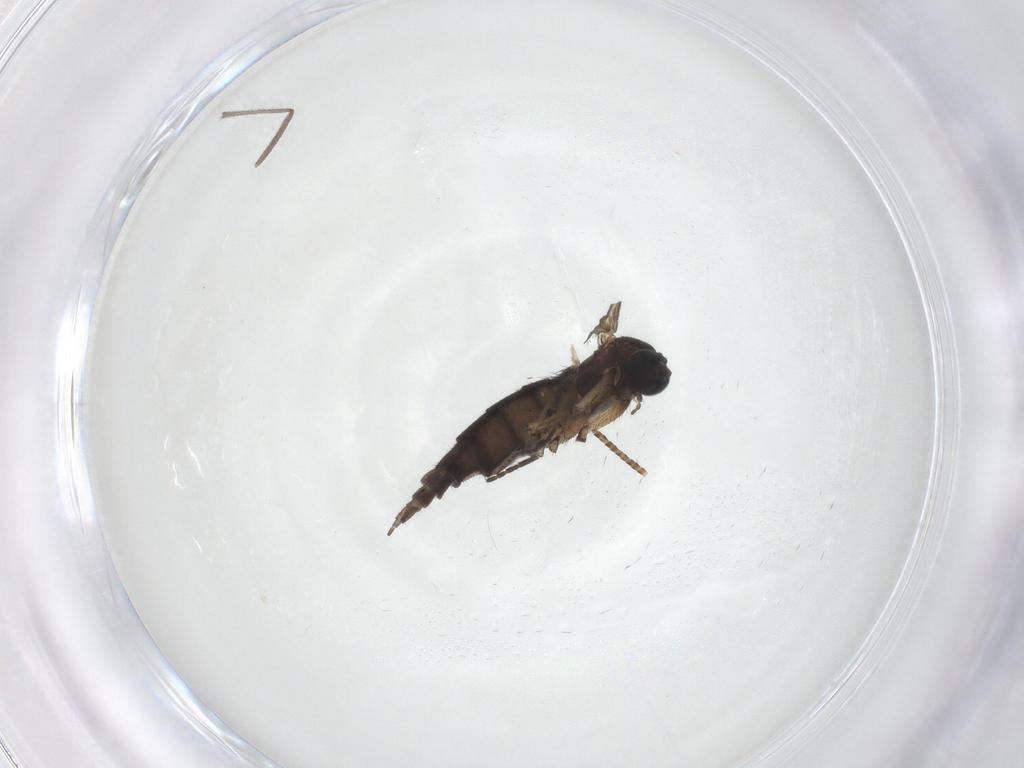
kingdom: Animalia
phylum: Arthropoda
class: Insecta
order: Diptera
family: Sciaridae
